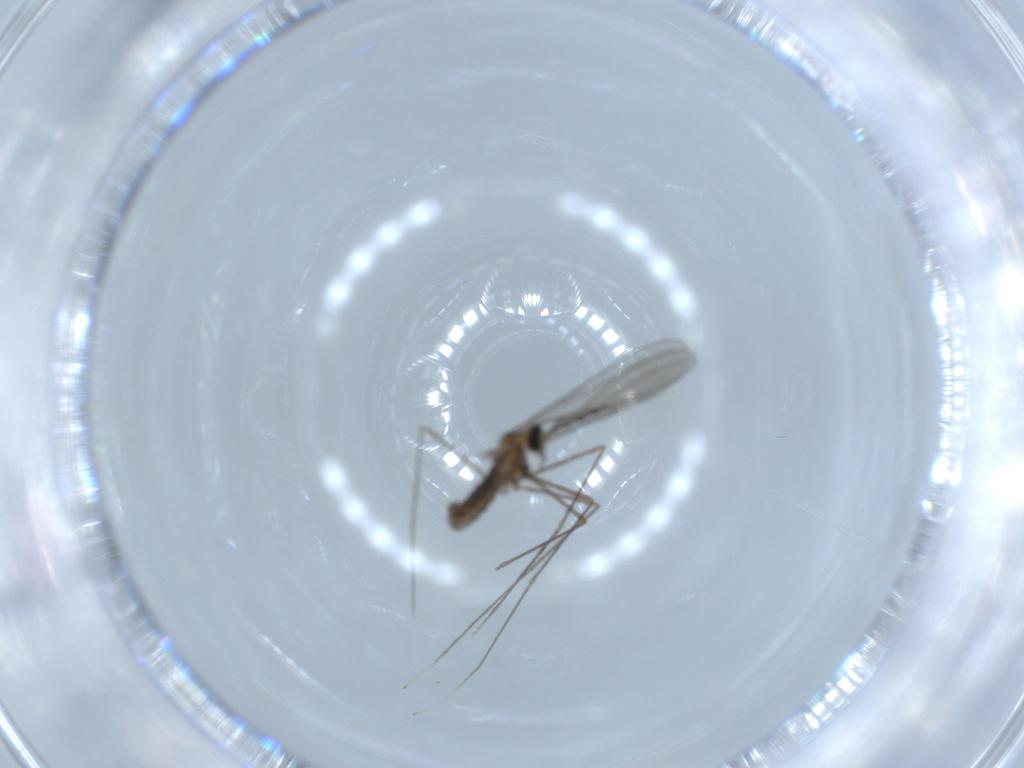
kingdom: Animalia
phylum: Arthropoda
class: Insecta
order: Diptera
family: Cecidomyiidae
